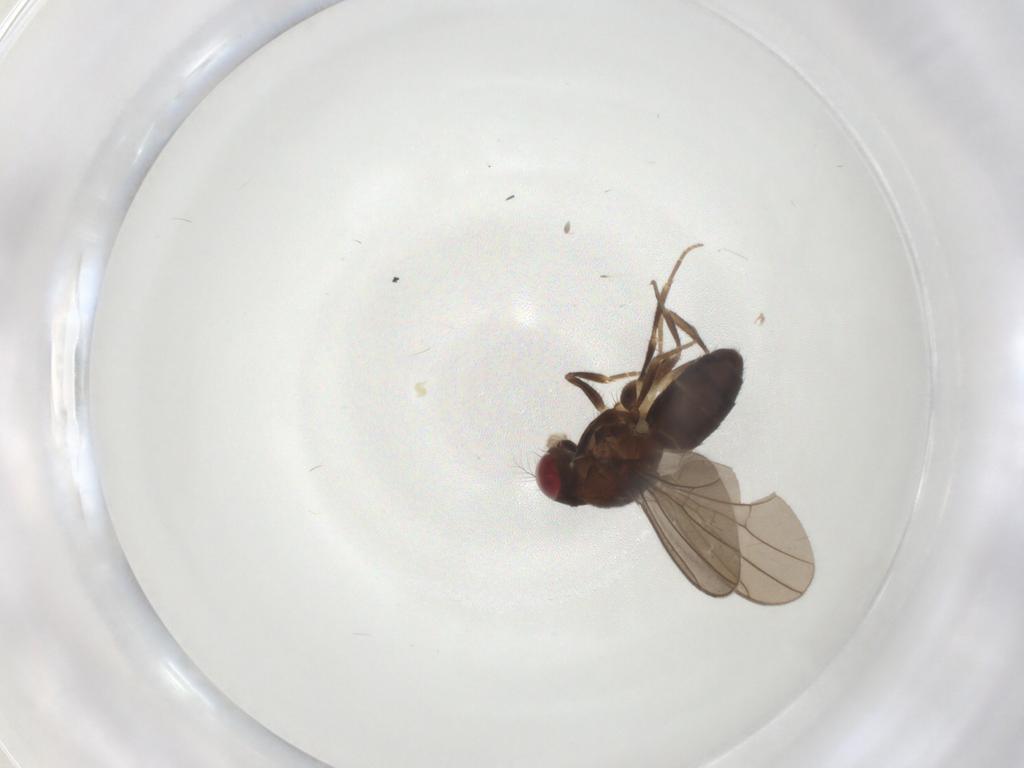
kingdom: Animalia
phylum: Arthropoda
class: Insecta
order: Diptera
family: Drosophilidae
